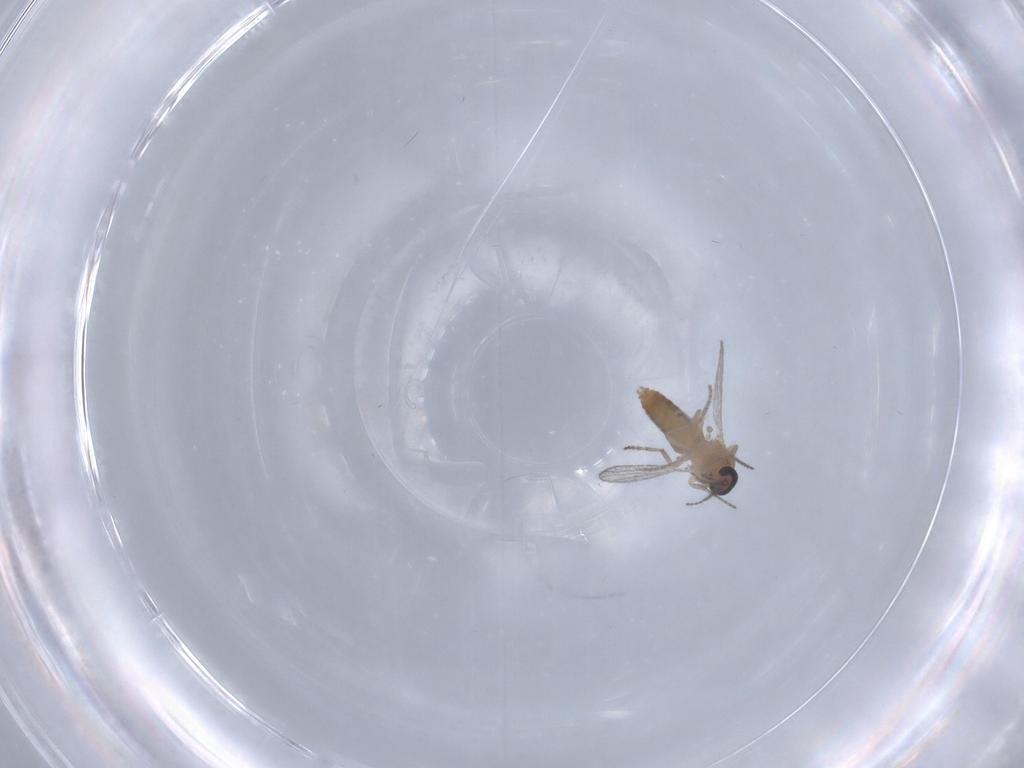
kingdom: Animalia
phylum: Arthropoda
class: Insecta
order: Diptera
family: Ceratopogonidae
